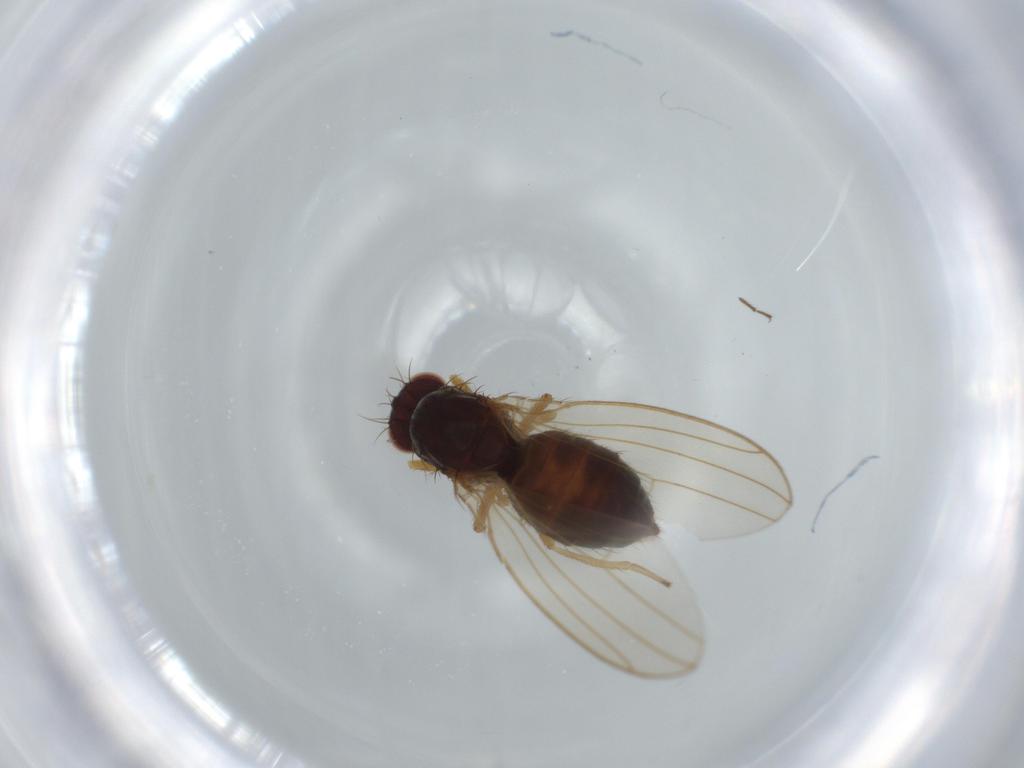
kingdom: Animalia
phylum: Arthropoda
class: Insecta
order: Diptera
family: Drosophilidae
